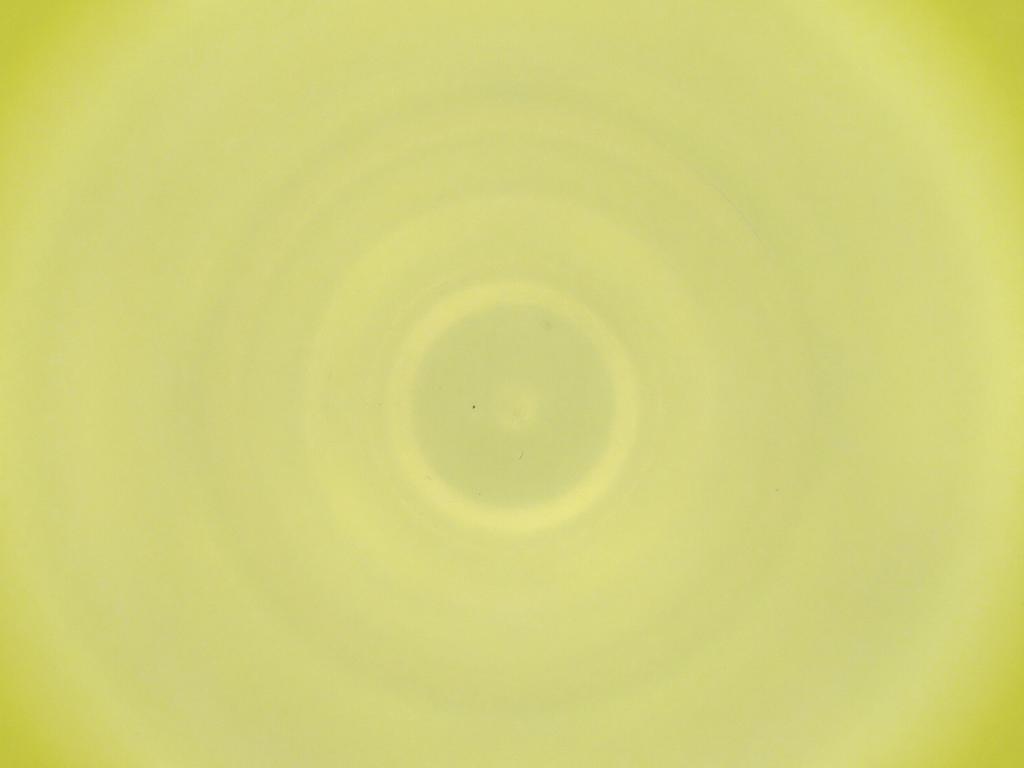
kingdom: Animalia
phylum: Arthropoda
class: Insecta
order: Diptera
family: Cecidomyiidae
